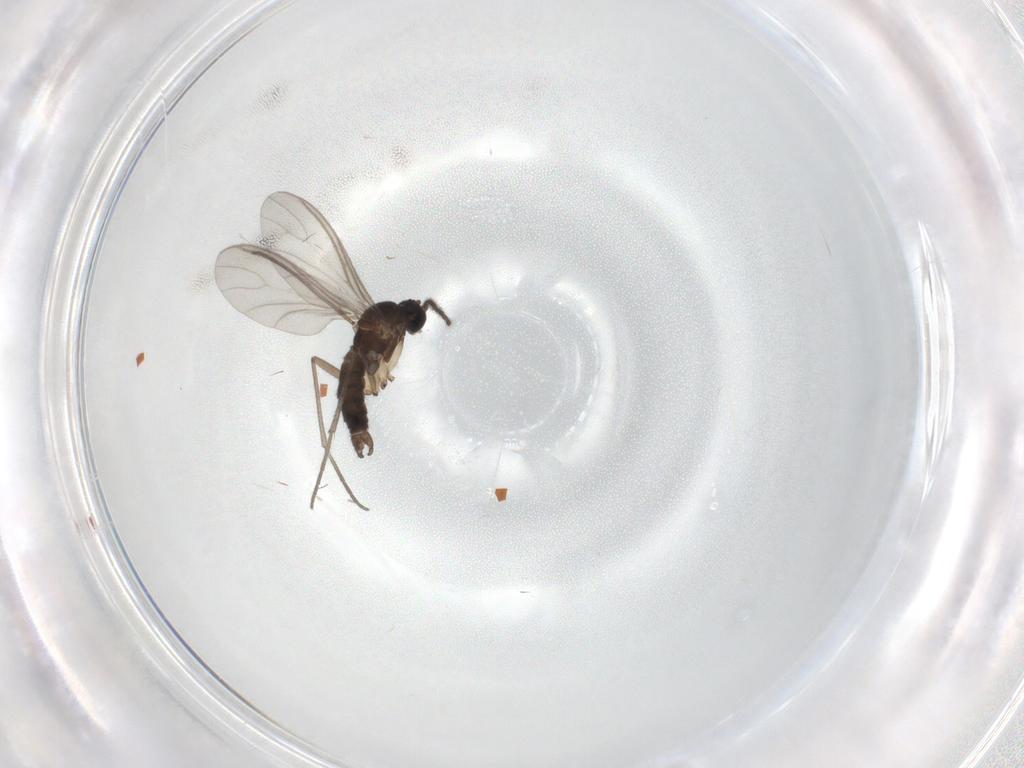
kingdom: Animalia
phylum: Arthropoda
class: Insecta
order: Diptera
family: Sciaridae
